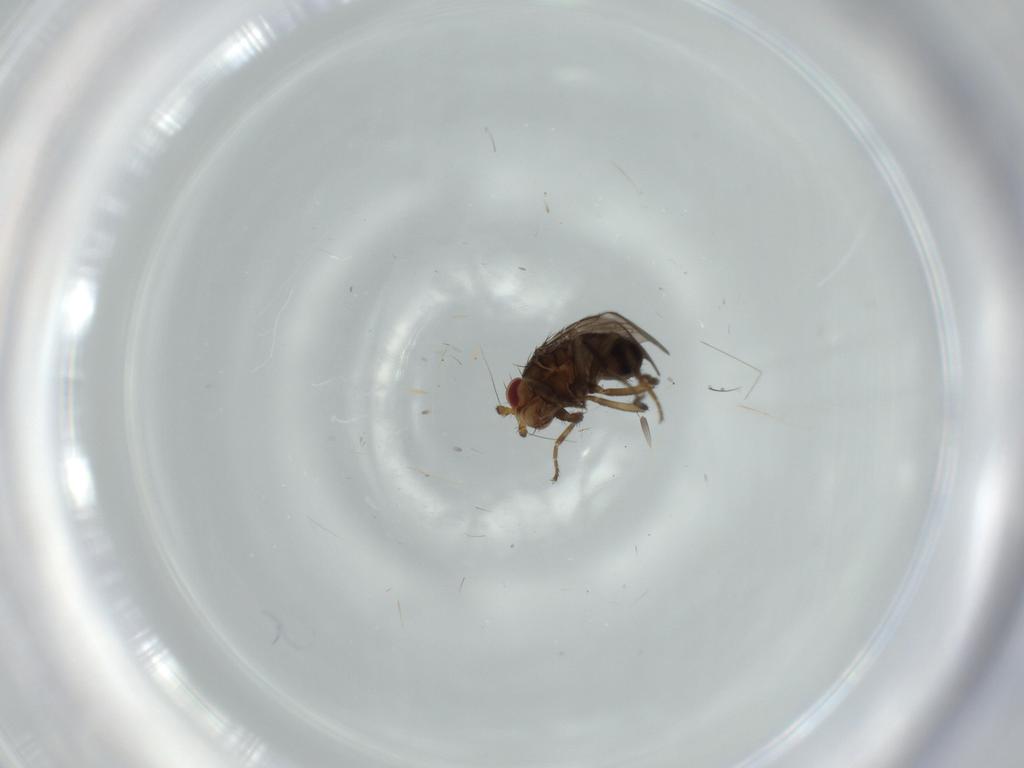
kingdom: Animalia
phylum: Arthropoda
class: Insecta
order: Diptera
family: Sphaeroceridae
